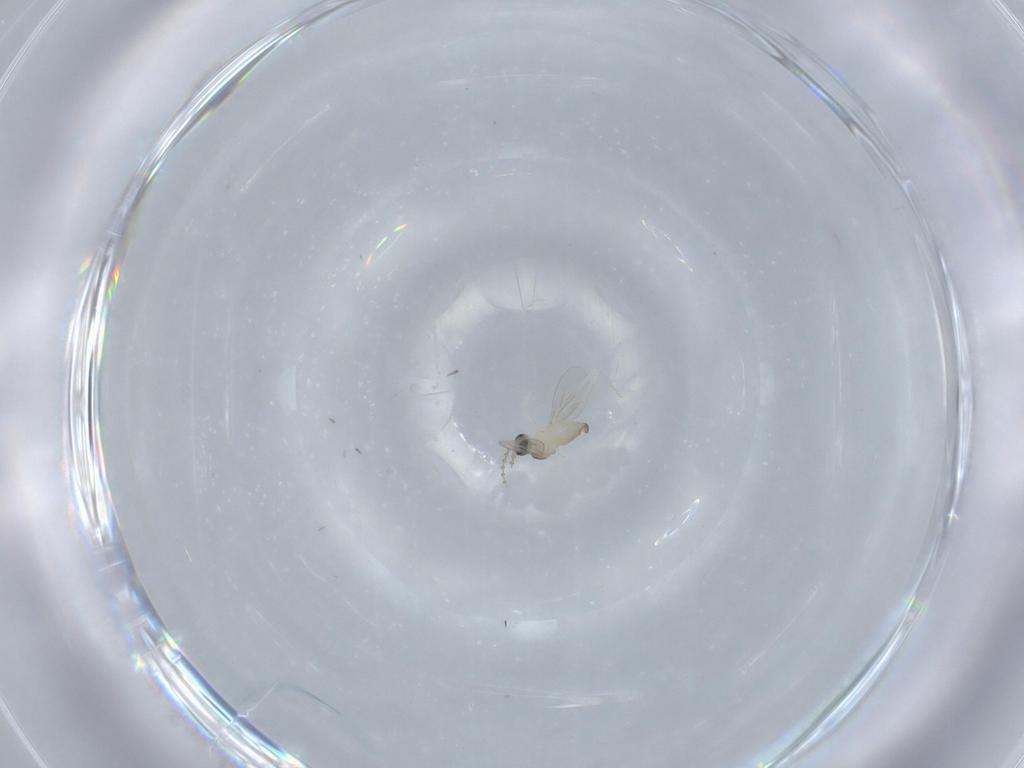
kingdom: Animalia
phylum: Arthropoda
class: Insecta
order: Diptera
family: Cecidomyiidae
